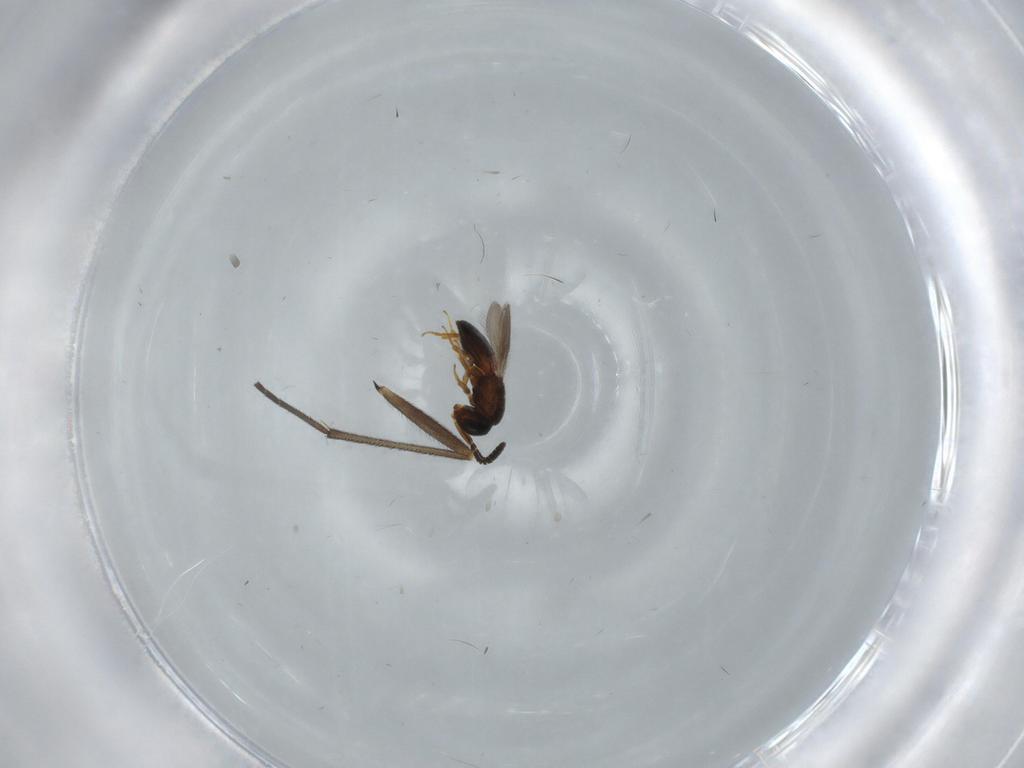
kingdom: Animalia
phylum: Arthropoda
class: Insecta
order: Hymenoptera
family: Scelionidae
